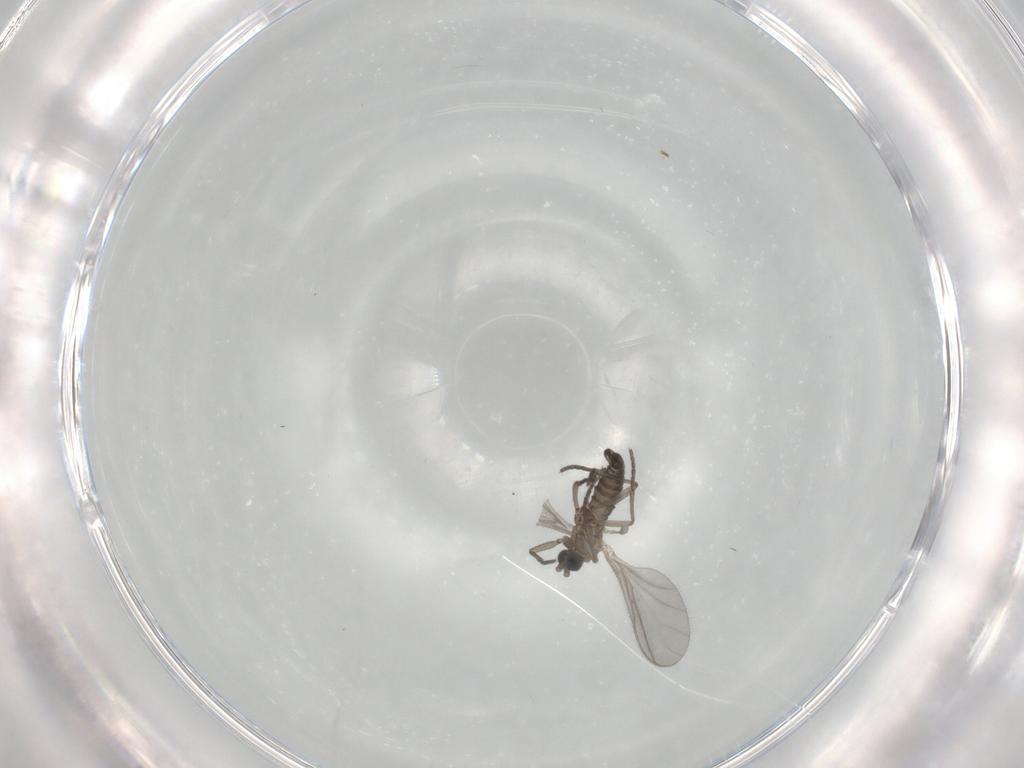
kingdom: Animalia
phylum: Arthropoda
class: Insecta
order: Diptera
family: Sciaridae
